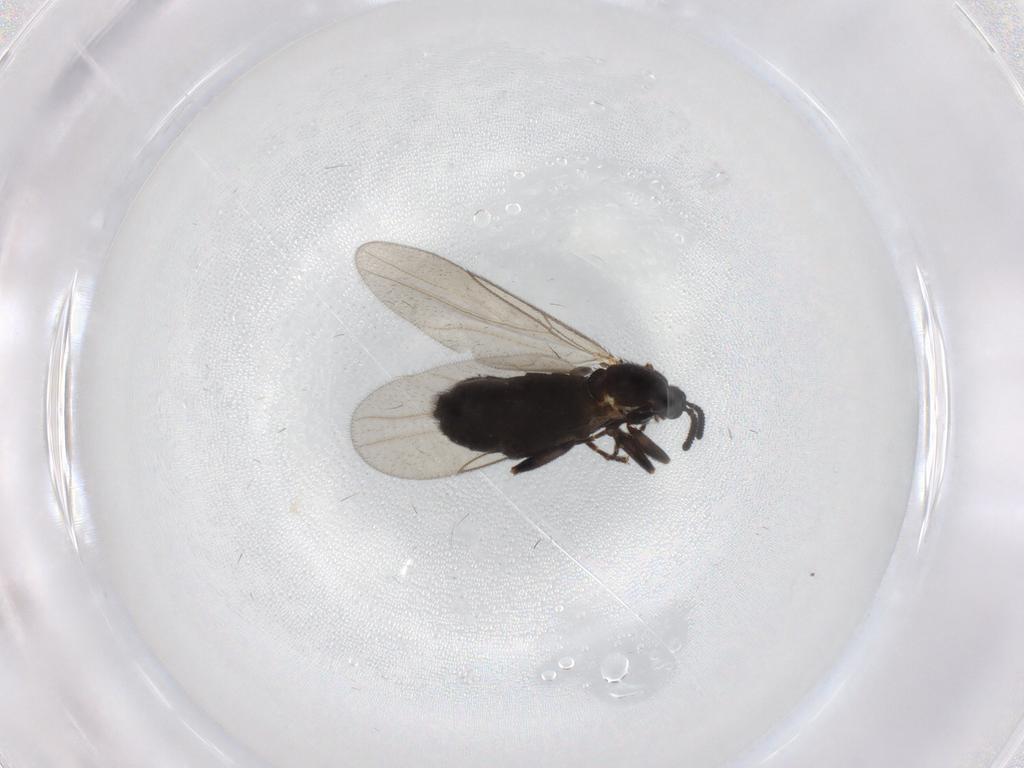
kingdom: Animalia
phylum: Arthropoda
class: Insecta
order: Diptera
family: Scatopsidae
